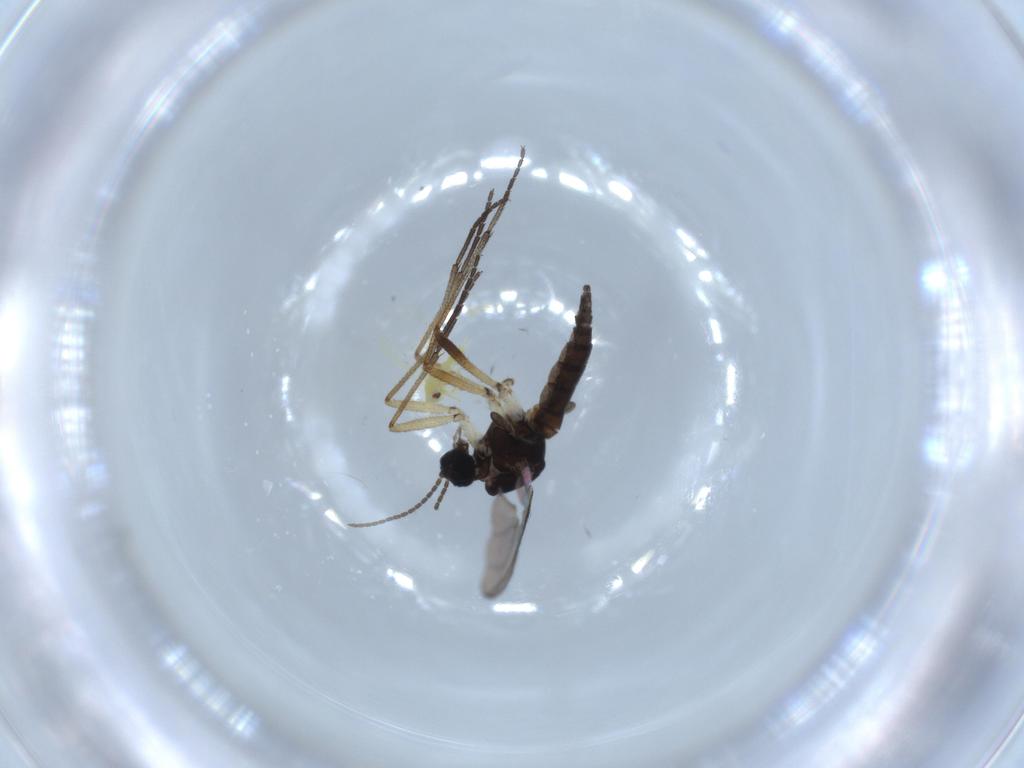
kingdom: Animalia
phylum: Arthropoda
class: Insecta
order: Diptera
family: Sciaridae
